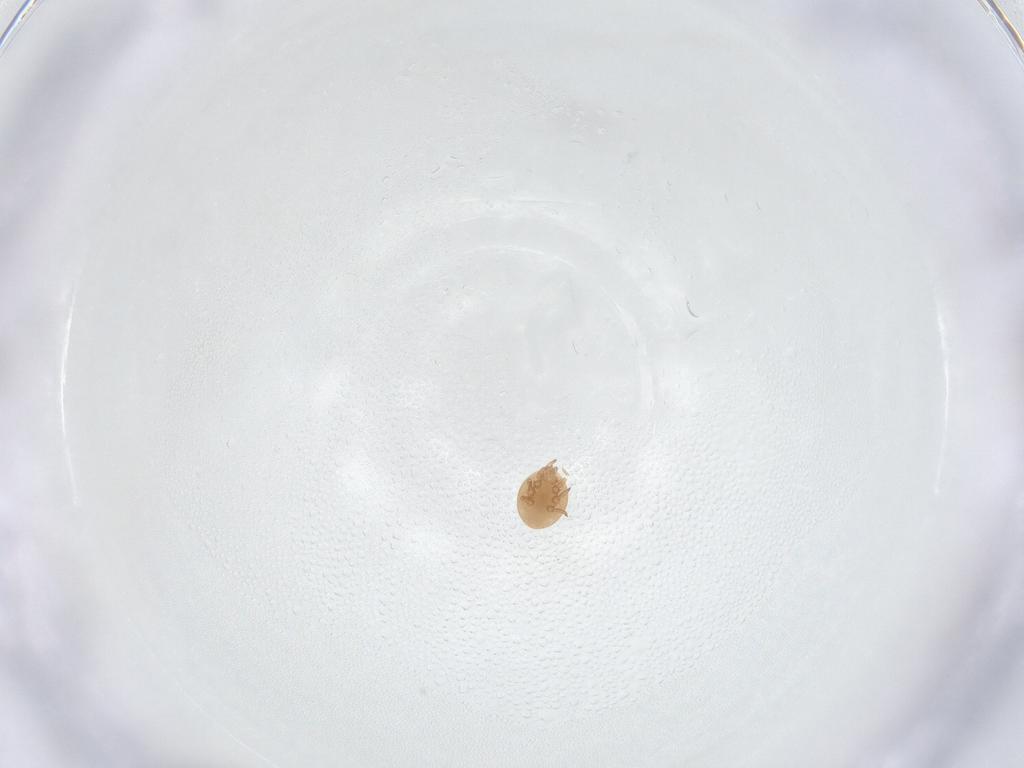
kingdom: Animalia
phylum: Arthropoda
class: Arachnida
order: Mesostigmata
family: Trematuridae
